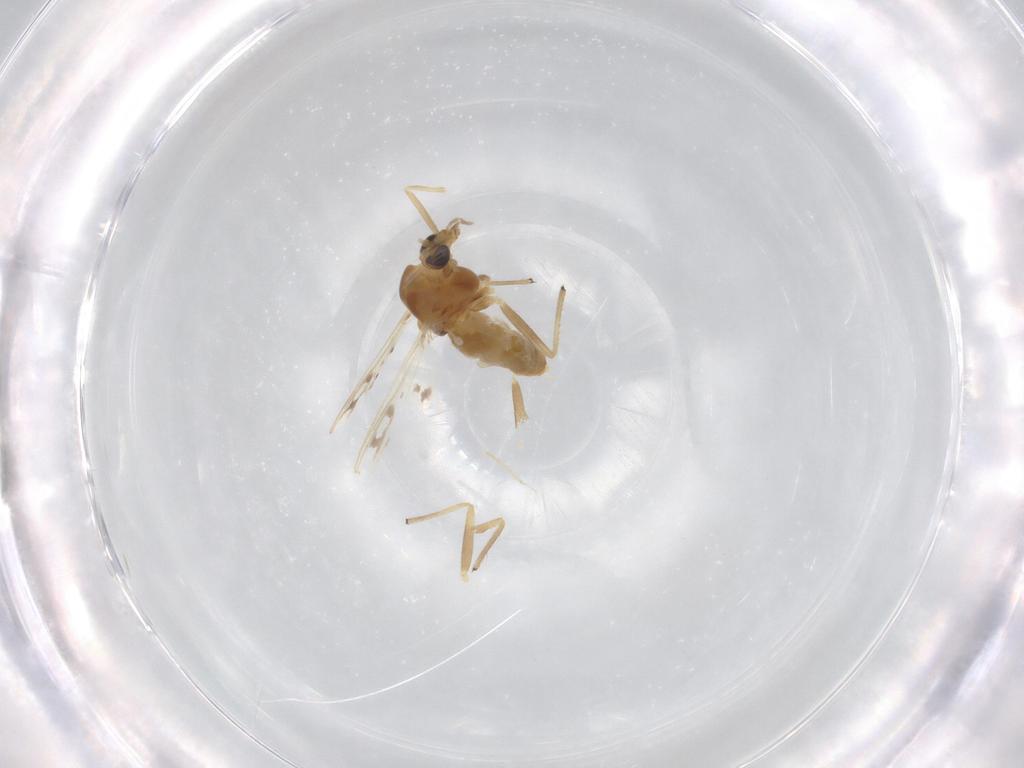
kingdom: Animalia
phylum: Arthropoda
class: Insecta
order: Diptera
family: Chironomidae
